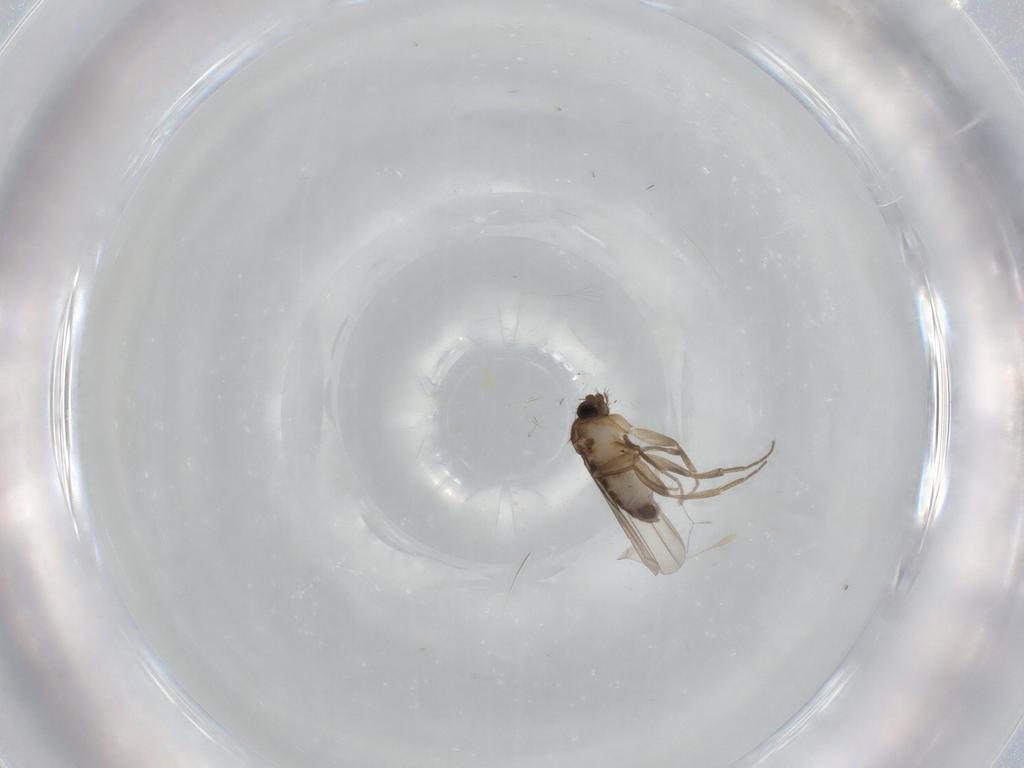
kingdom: Animalia
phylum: Arthropoda
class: Insecta
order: Diptera
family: Phoridae
